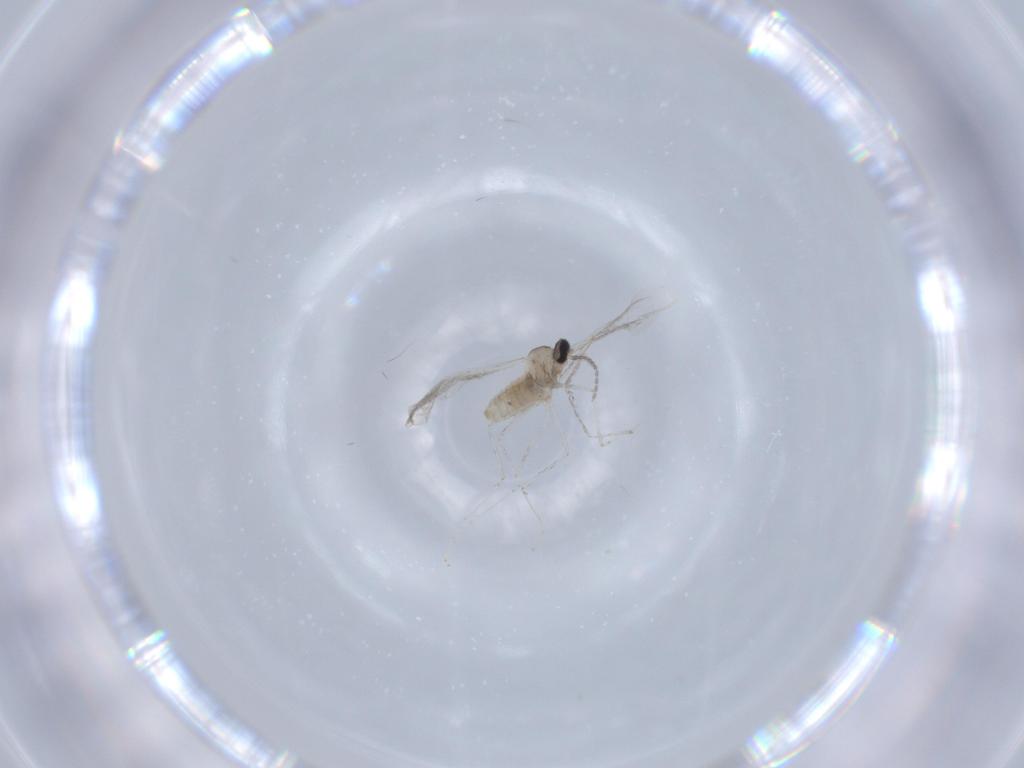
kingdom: Animalia
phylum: Arthropoda
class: Insecta
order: Diptera
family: Cecidomyiidae
